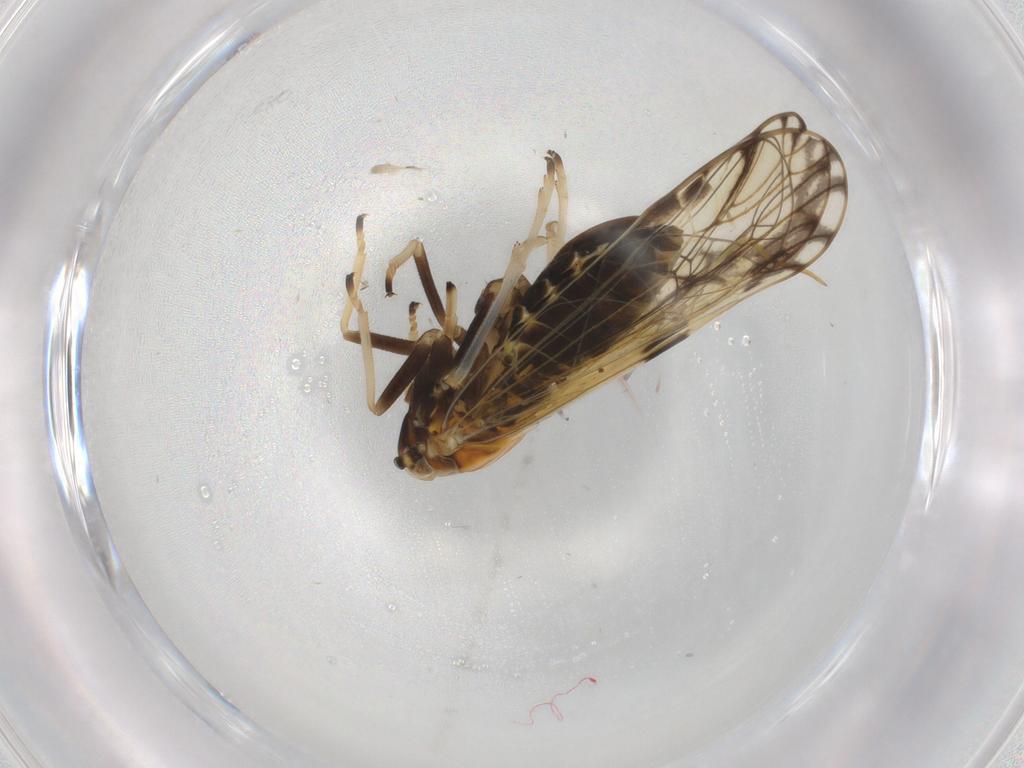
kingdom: Animalia
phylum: Arthropoda
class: Insecta
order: Hemiptera
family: Delphacidae
